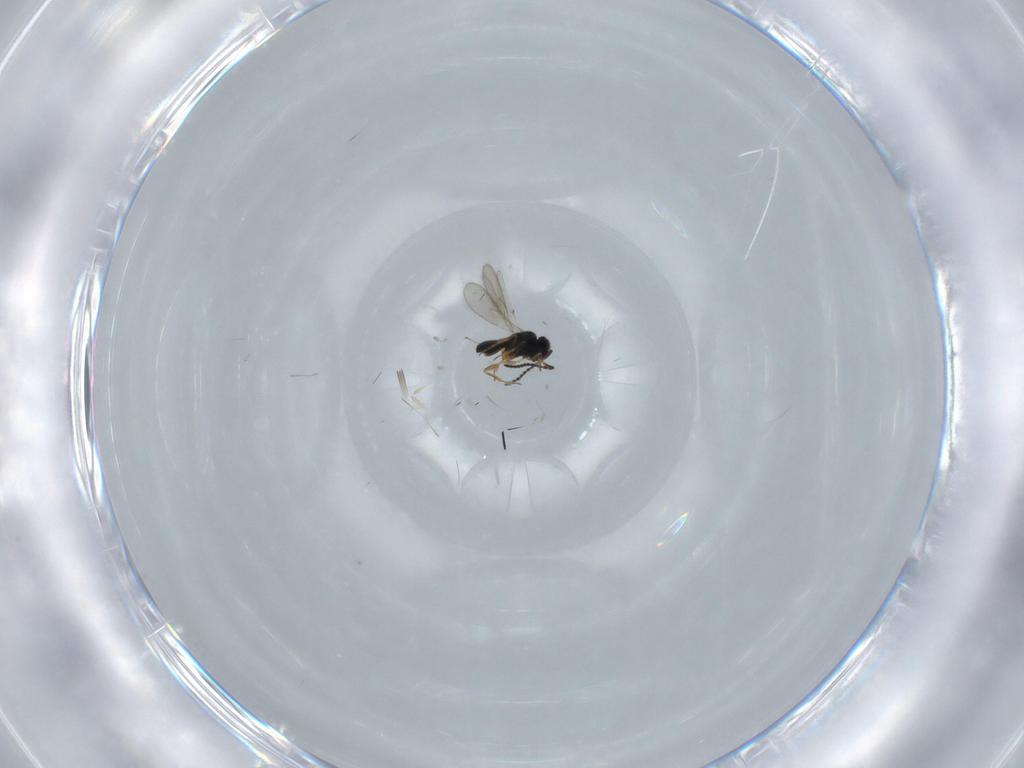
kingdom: Animalia
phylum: Arthropoda
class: Insecta
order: Hymenoptera
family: Scelionidae
